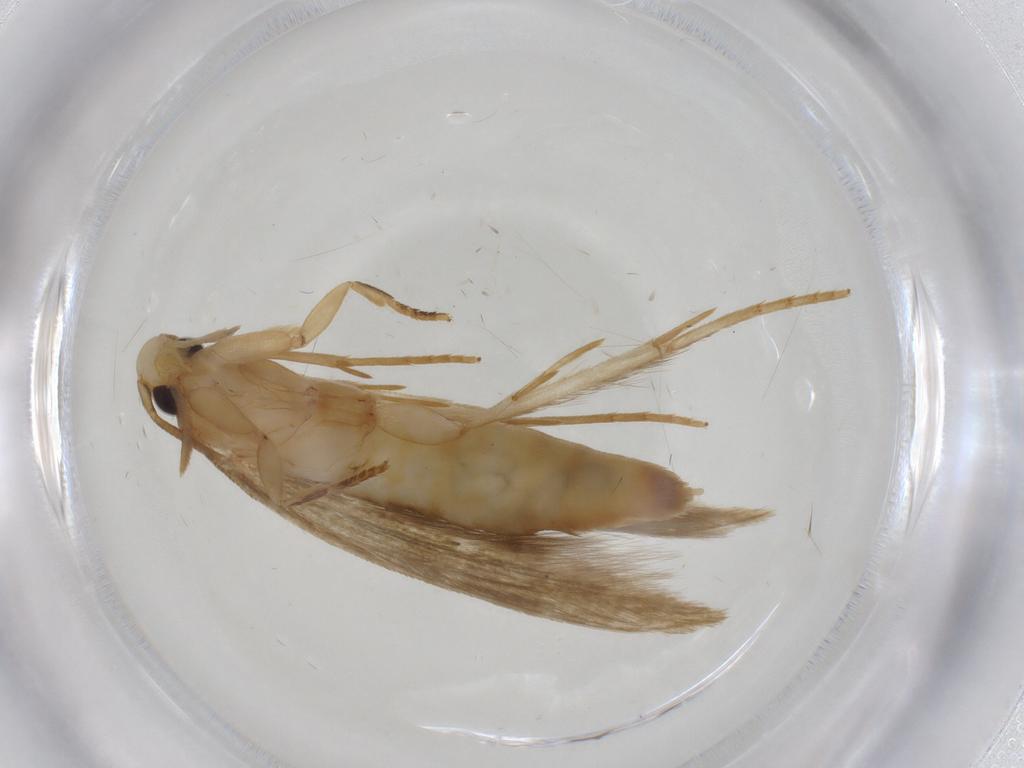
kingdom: Animalia
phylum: Arthropoda
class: Insecta
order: Lepidoptera
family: Tineidae
